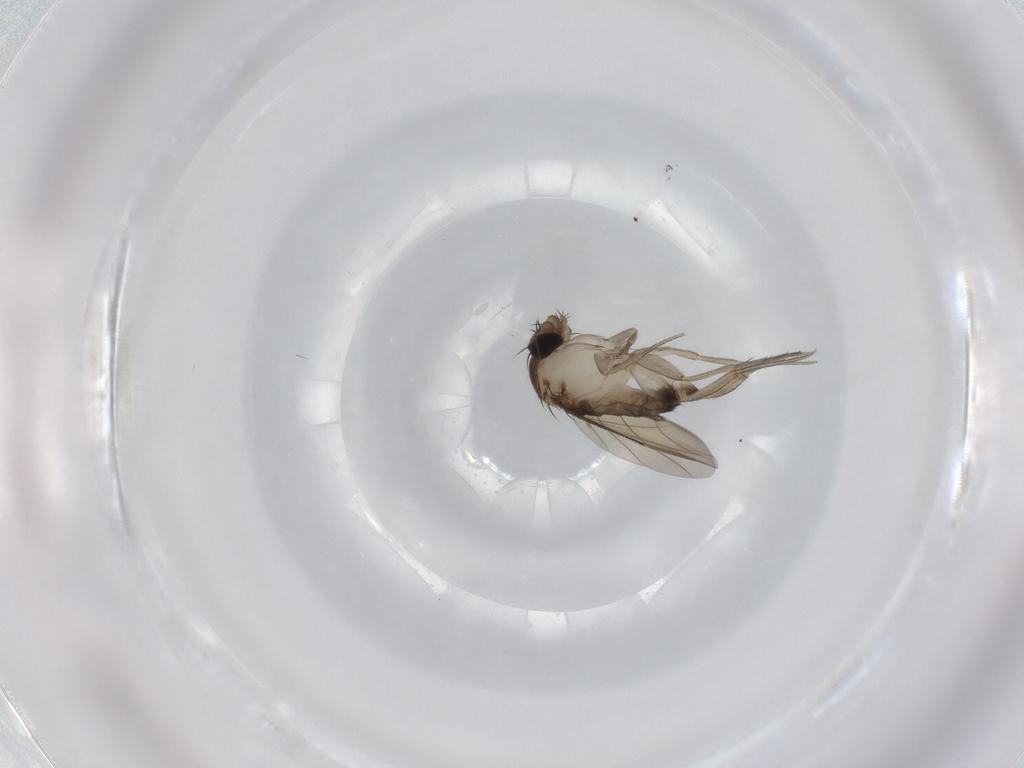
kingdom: Animalia
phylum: Arthropoda
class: Insecta
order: Diptera
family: Phoridae
